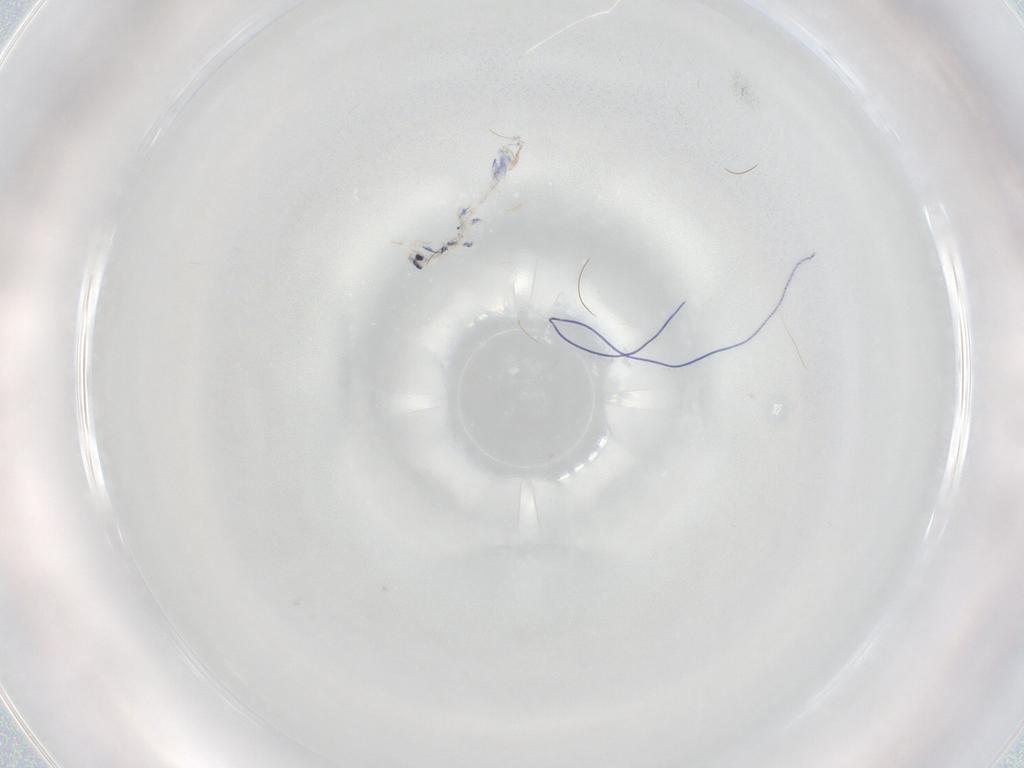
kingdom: Animalia
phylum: Arthropoda
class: Collembola
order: Entomobryomorpha
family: Entomobryidae
